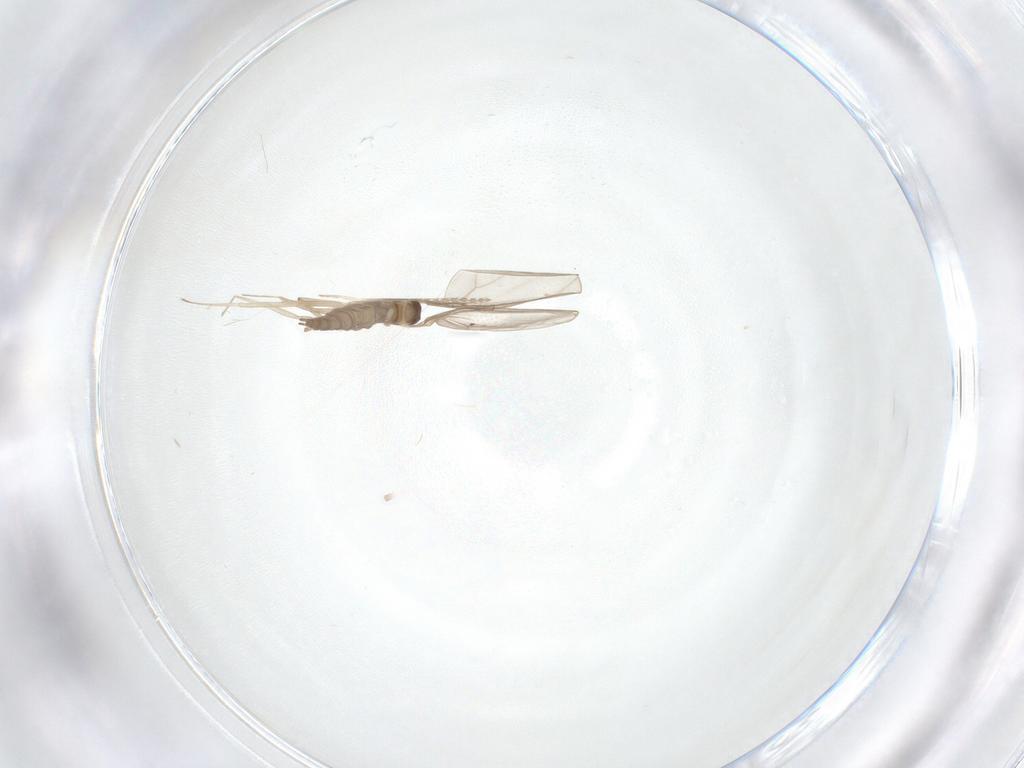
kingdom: Animalia
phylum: Arthropoda
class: Insecta
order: Diptera
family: Cecidomyiidae
